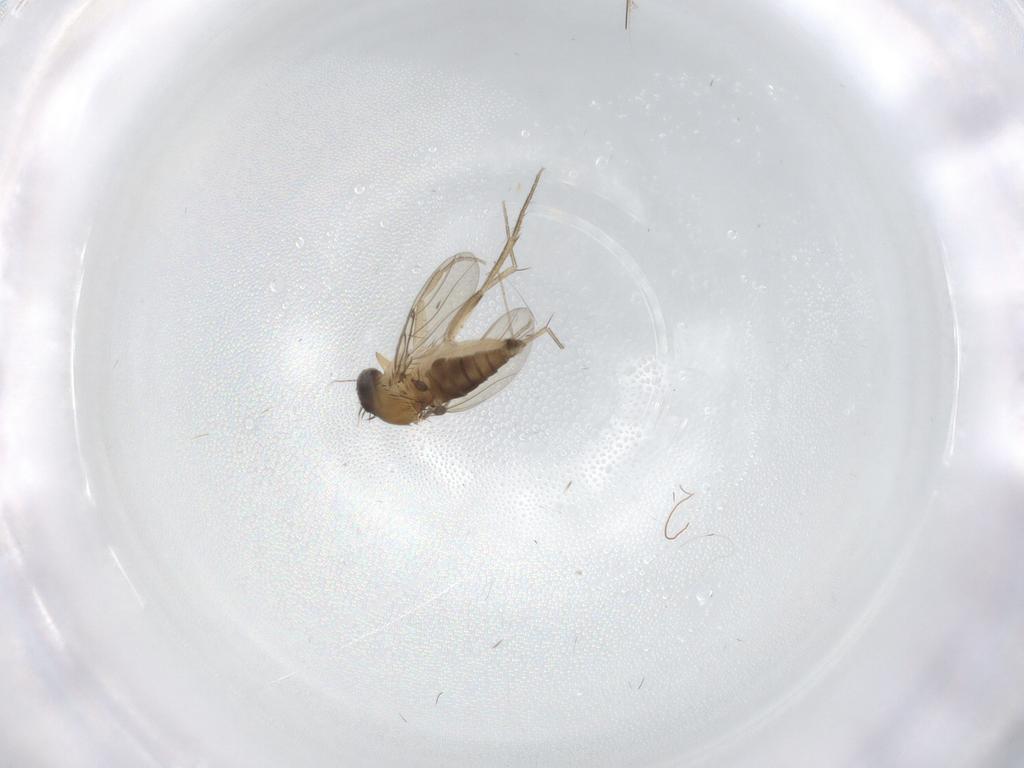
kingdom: Animalia
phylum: Arthropoda
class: Insecta
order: Diptera
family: Phoridae
